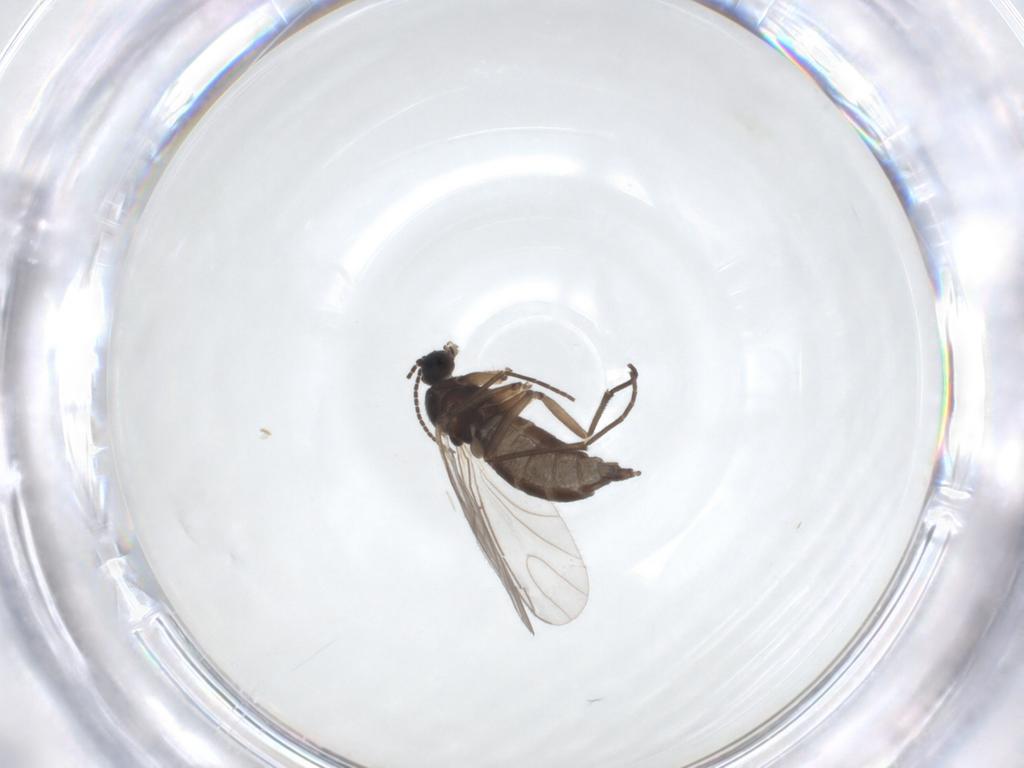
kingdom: Animalia
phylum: Arthropoda
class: Insecta
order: Diptera
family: Sciaridae
